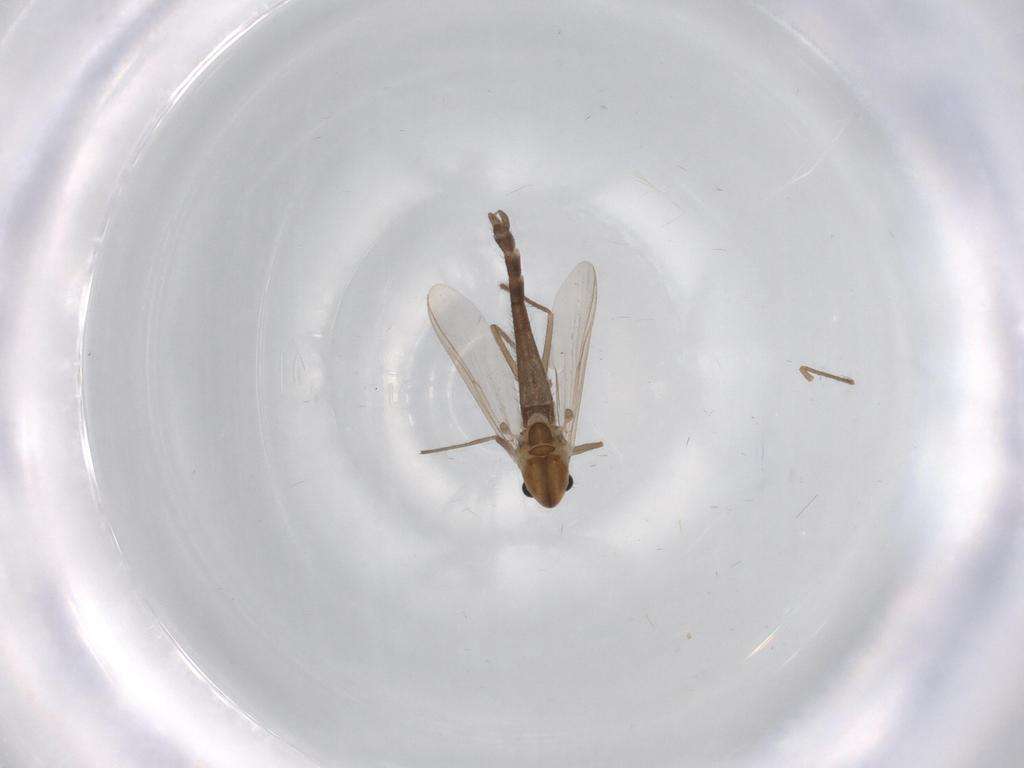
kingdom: Animalia
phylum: Arthropoda
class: Insecta
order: Diptera
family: Chironomidae
